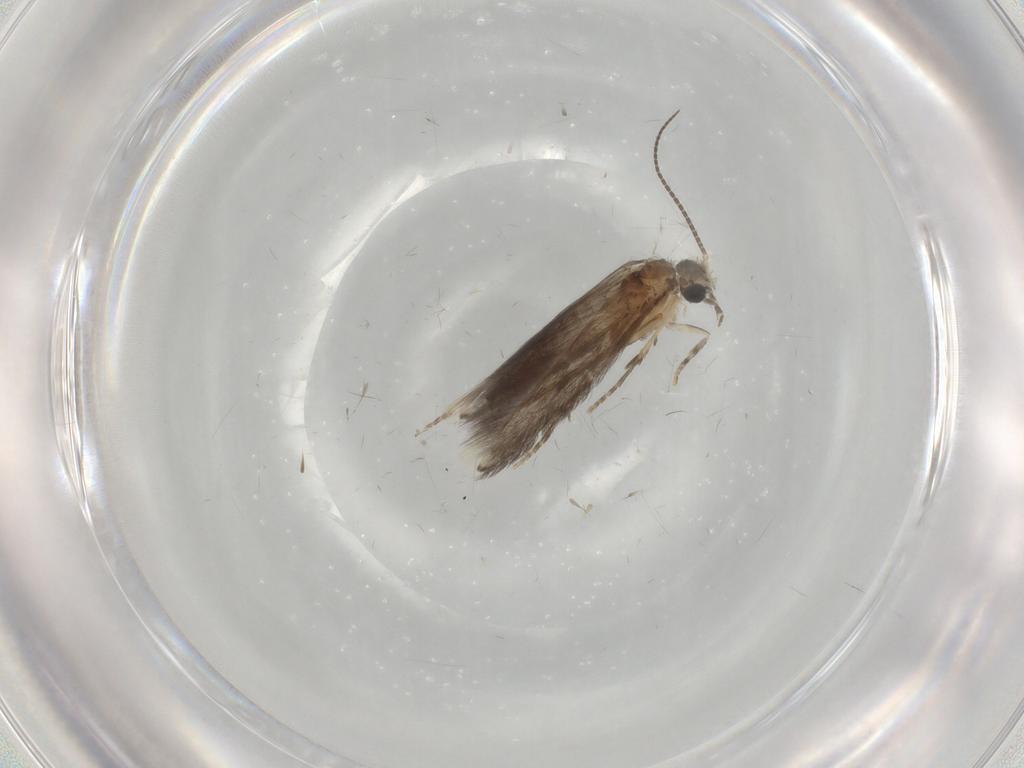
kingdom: Animalia
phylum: Arthropoda
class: Insecta
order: Trichoptera
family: Hydroptilidae
